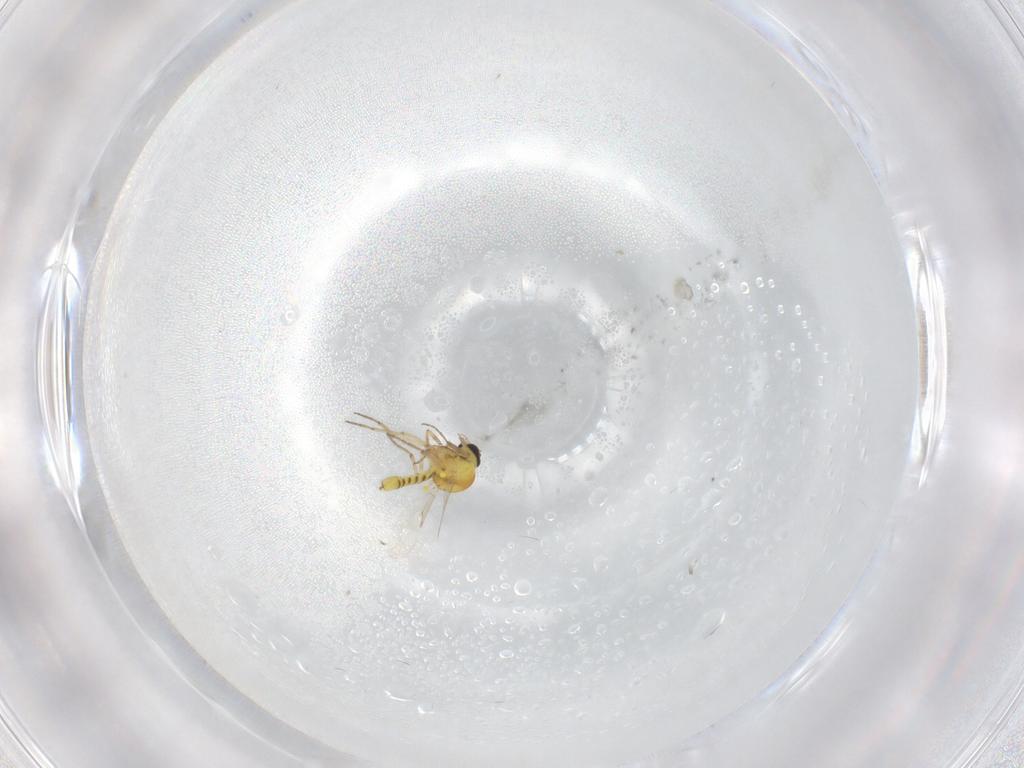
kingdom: Animalia
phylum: Arthropoda
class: Insecta
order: Diptera
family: Ceratopogonidae
